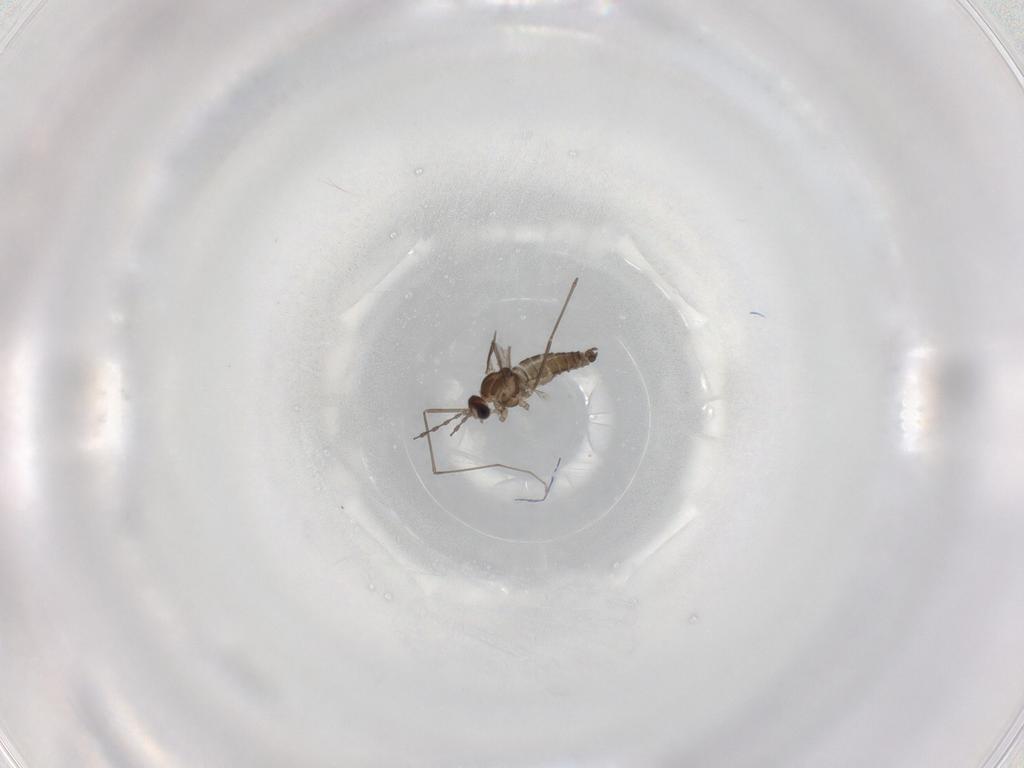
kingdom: Animalia
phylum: Arthropoda
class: Insecta
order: Diptera
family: Cecidomyiidae
